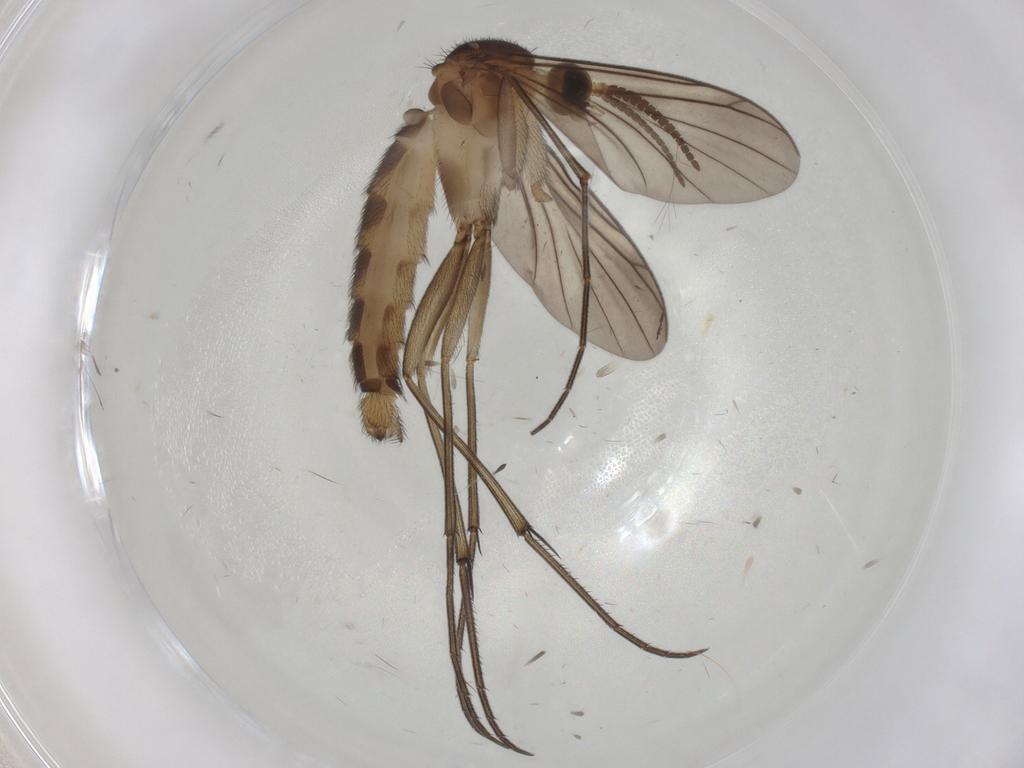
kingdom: Animalia
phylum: Arthropoda
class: Insecta
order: Diptera
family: Mycetophilidae
